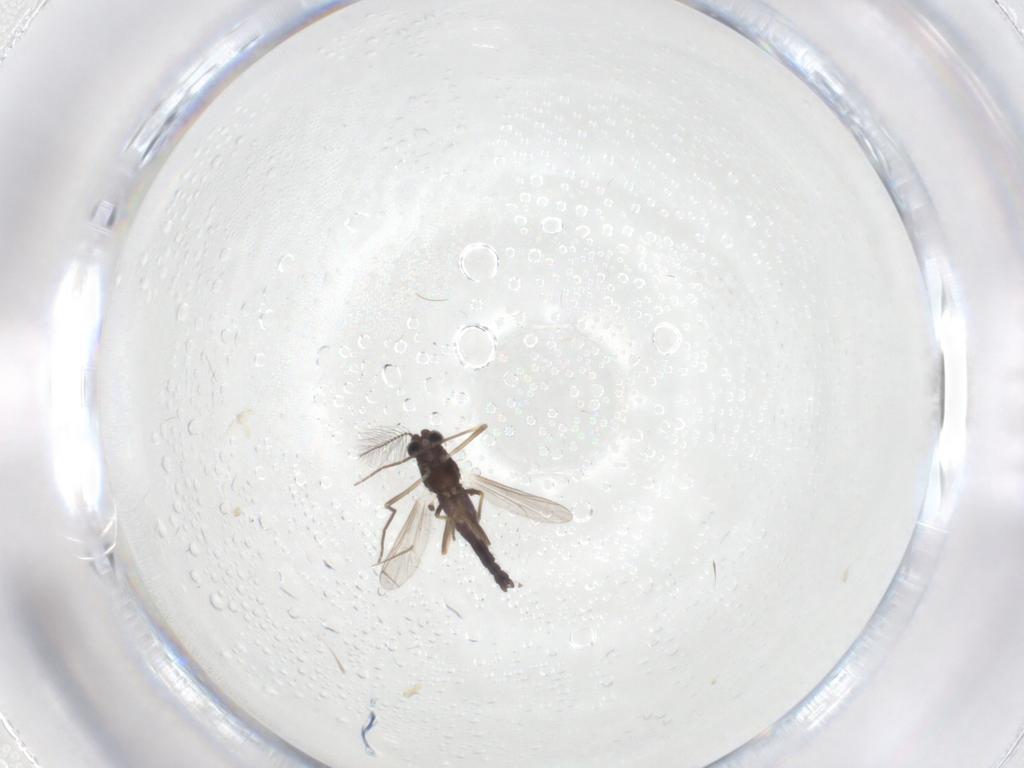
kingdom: Animalia
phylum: Arthropoda
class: Insecta
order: Diptera
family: Chironomidae
